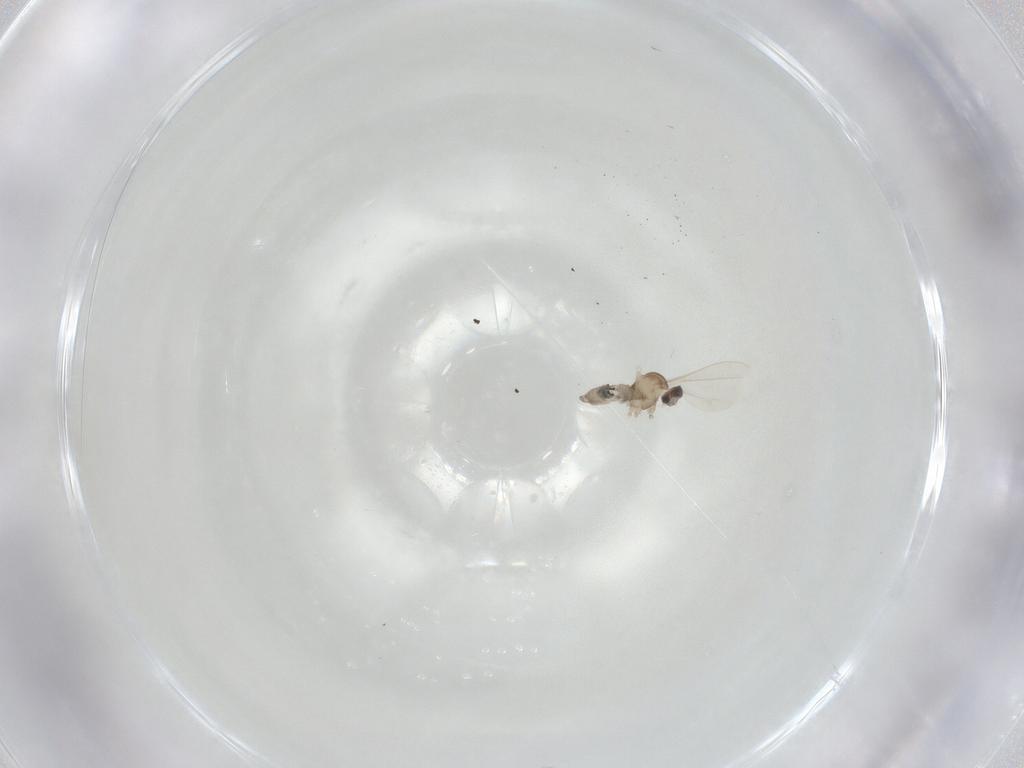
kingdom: Animalia
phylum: Arthropoda
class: Insecta
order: Diptera
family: Cecidomyiidae
